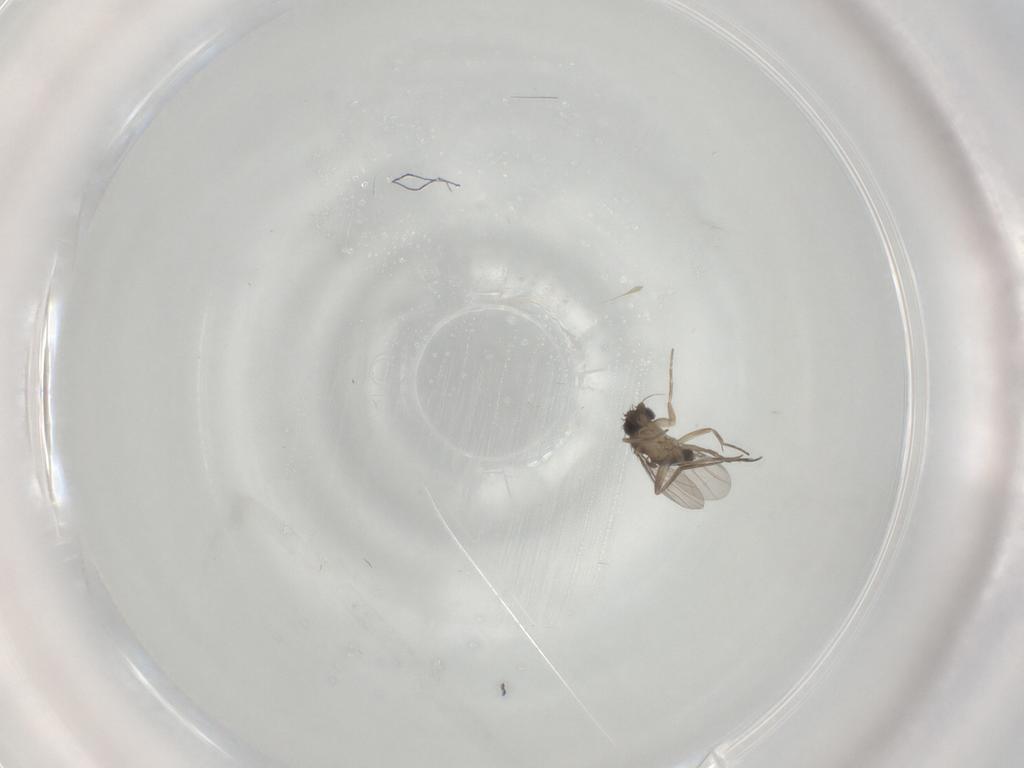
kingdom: Animalia
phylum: Arthropoda
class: Insecta
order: Diptera
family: Phoridae
